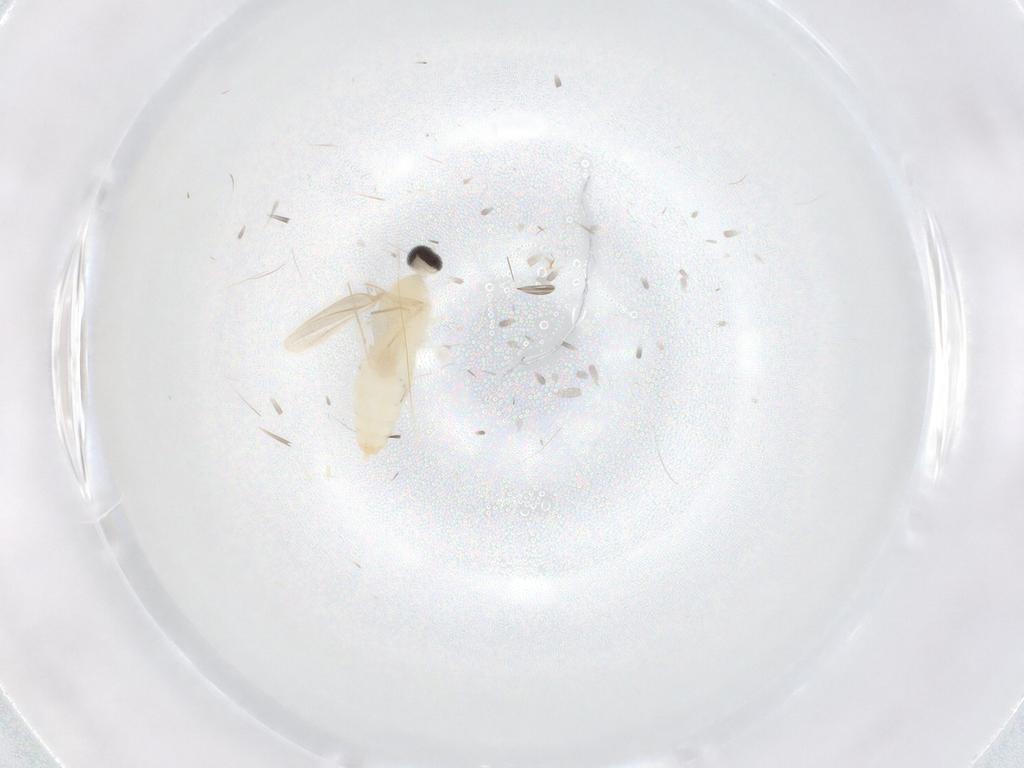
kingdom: Animalia
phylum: Arthropoda
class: Insecta
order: Diptera
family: Cecidomyiidae
